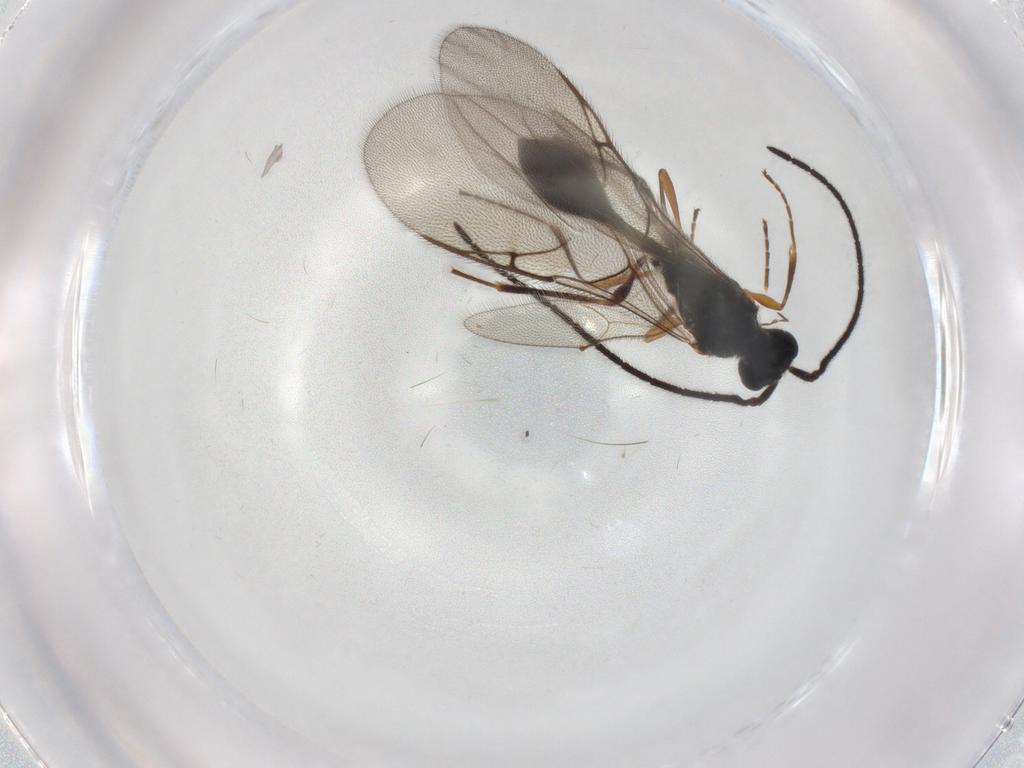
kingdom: Animalia
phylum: Arthropoda
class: Insecta
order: Hymenoptera
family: Diapriidae
